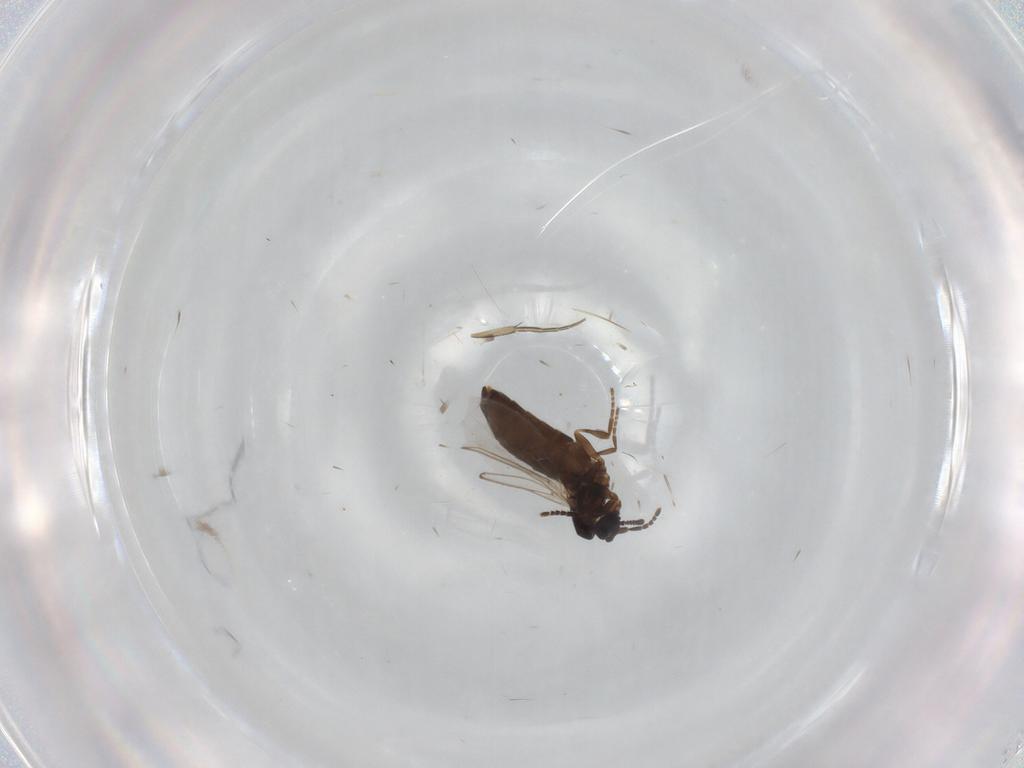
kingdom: Animalia
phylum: Arthropoda
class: Insecta
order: Diptera
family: Scatopsidae
